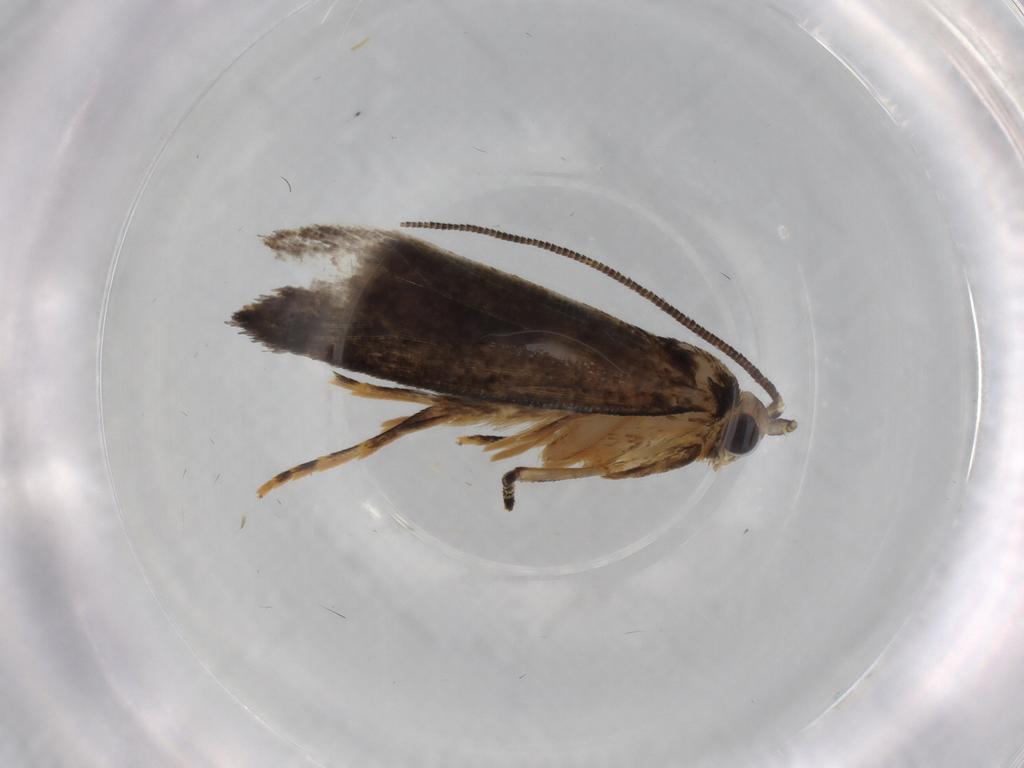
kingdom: Animalia
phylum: Arthropoda
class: Insecta
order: Lepidoptera
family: Tineidae
